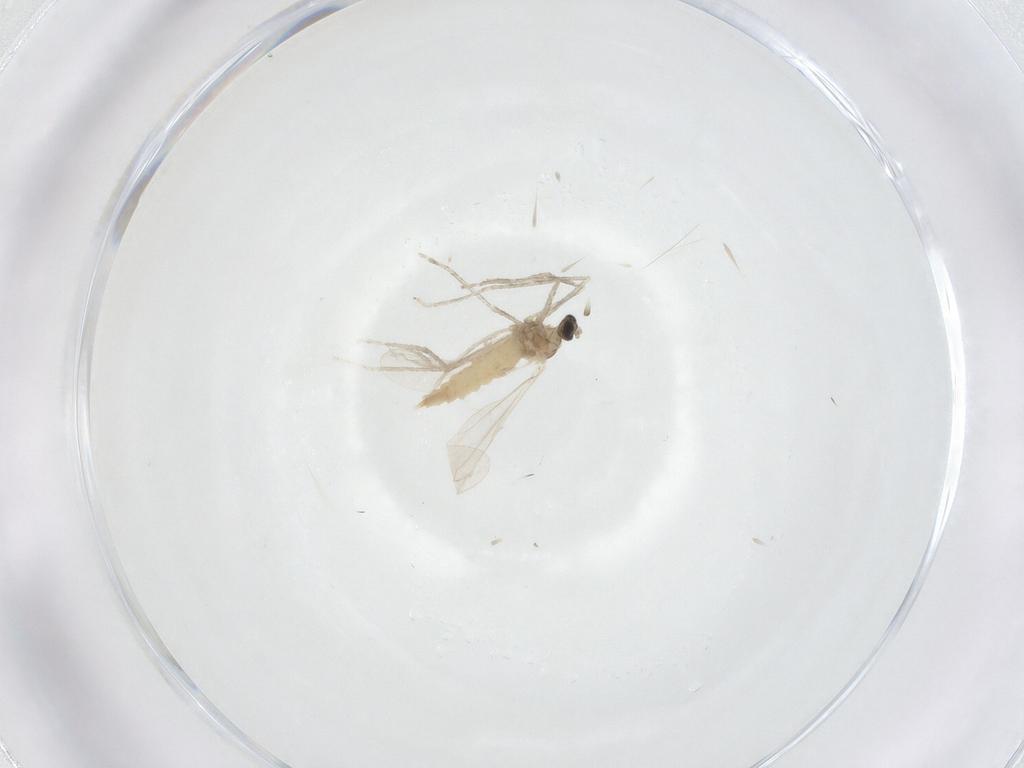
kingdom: Animalia
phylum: Arthropoda
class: Insecta
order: Diptera
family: Cecidomyiidae
